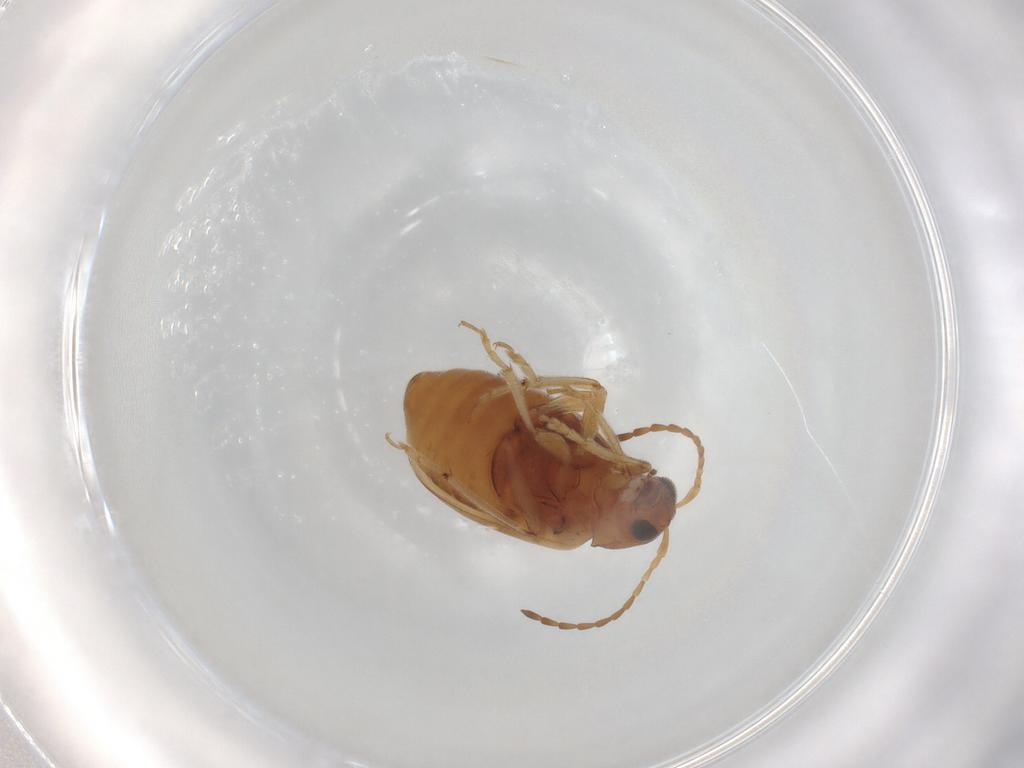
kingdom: Animalia
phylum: Arthropoda
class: Insecta
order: Coleoptera
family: Chrysomelidae
